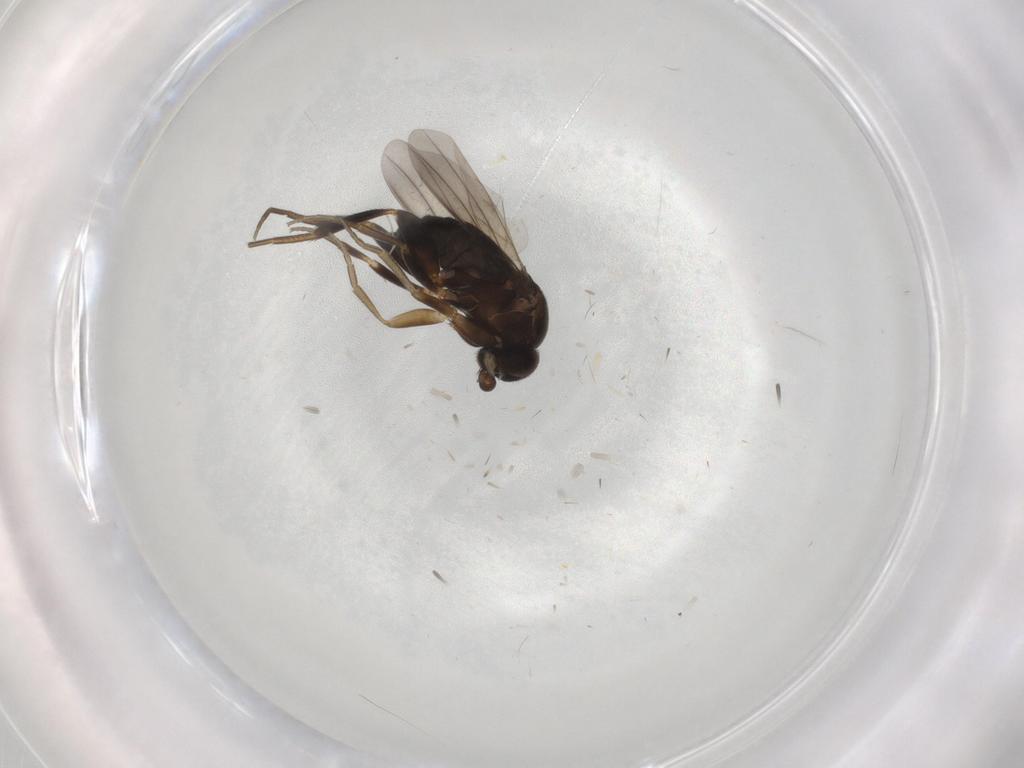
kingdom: Animalia
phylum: Arthropoda
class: Insecta
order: Diptera
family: Phoridae
